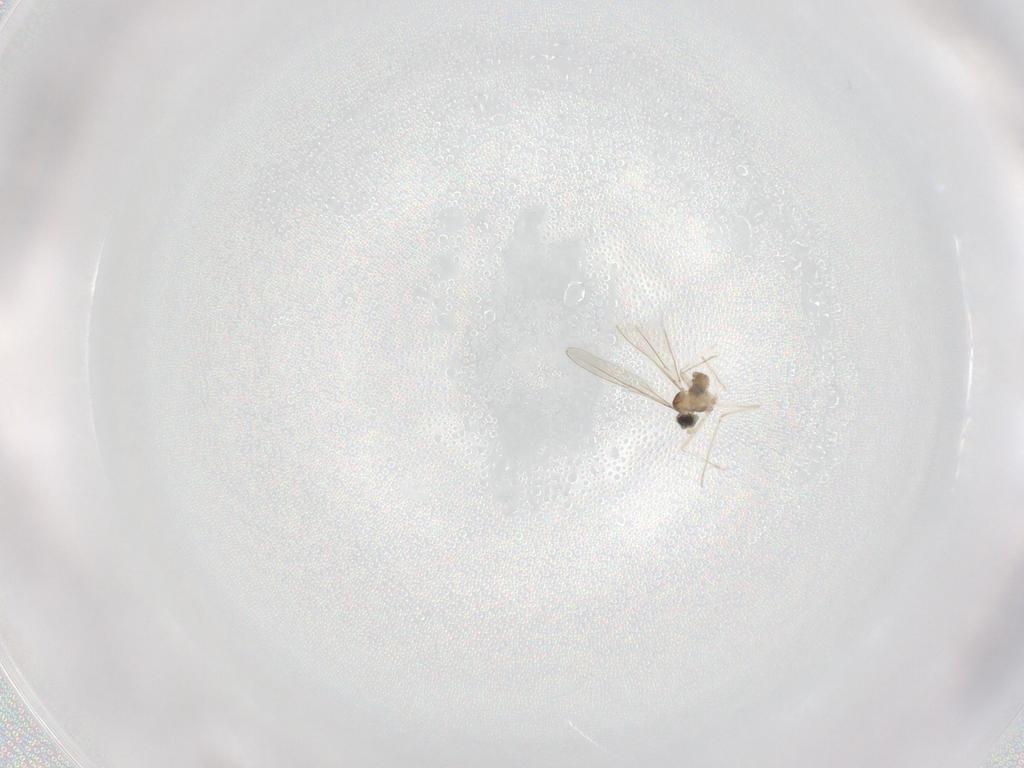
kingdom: Animalia
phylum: Arthropoda
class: Insecta
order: Diptera
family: Cecidomyiidae
